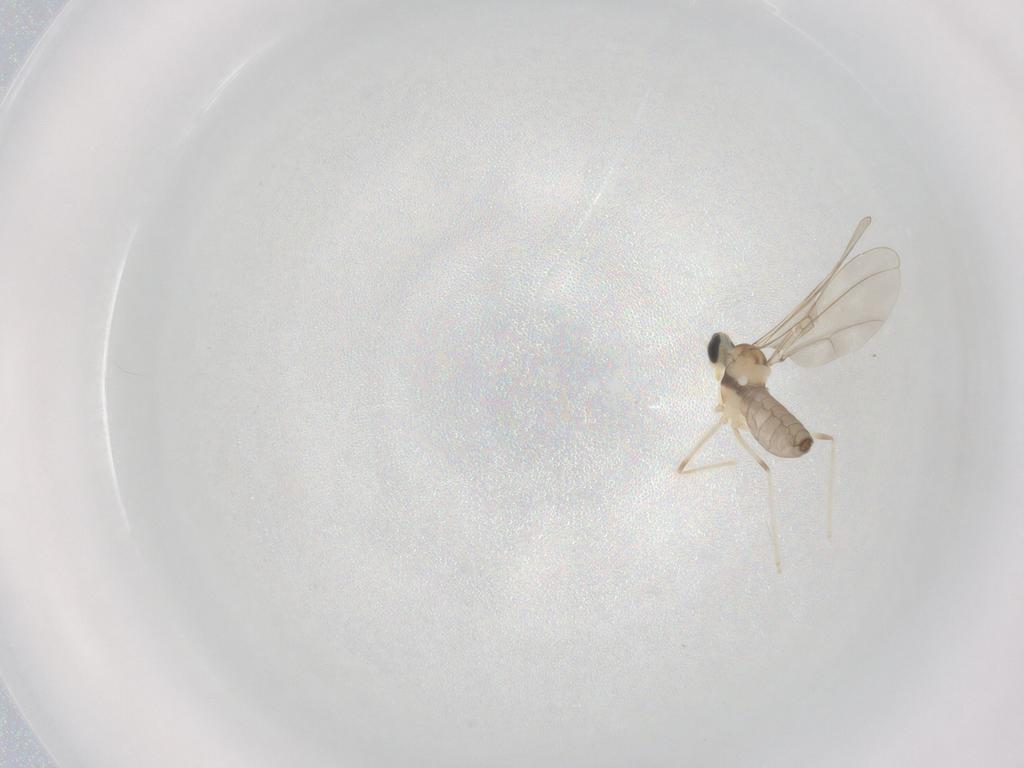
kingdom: Animalia
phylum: Arthropoda
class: Insecta
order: Diptera
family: Cecidomyiidae
